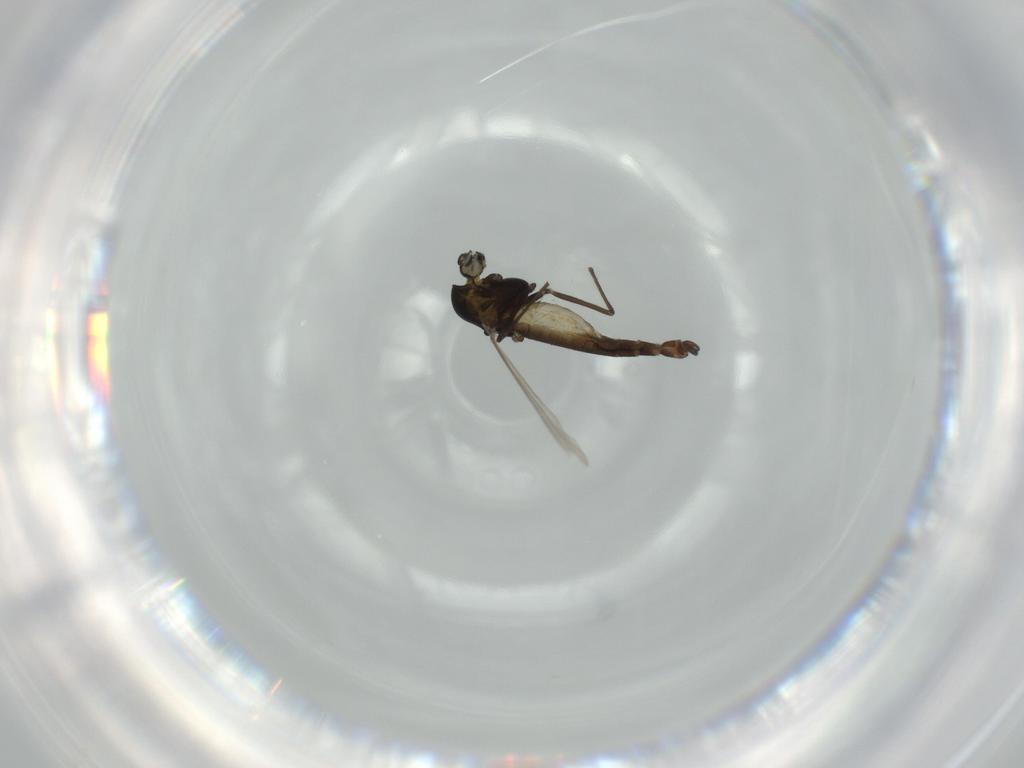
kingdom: Animalia
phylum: Arthropoda
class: Insecta
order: Diptera
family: Chironomidae
